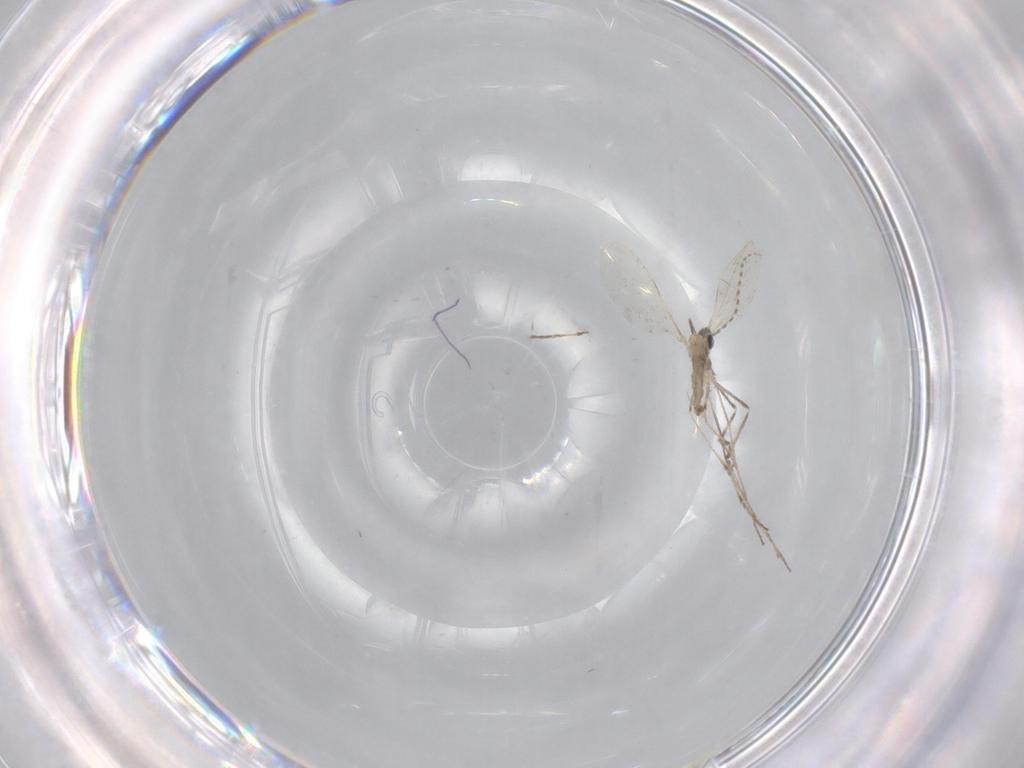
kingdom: Animalia
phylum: Arthropoda
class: Insecta
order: Diptera
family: Cecidomyiidae
